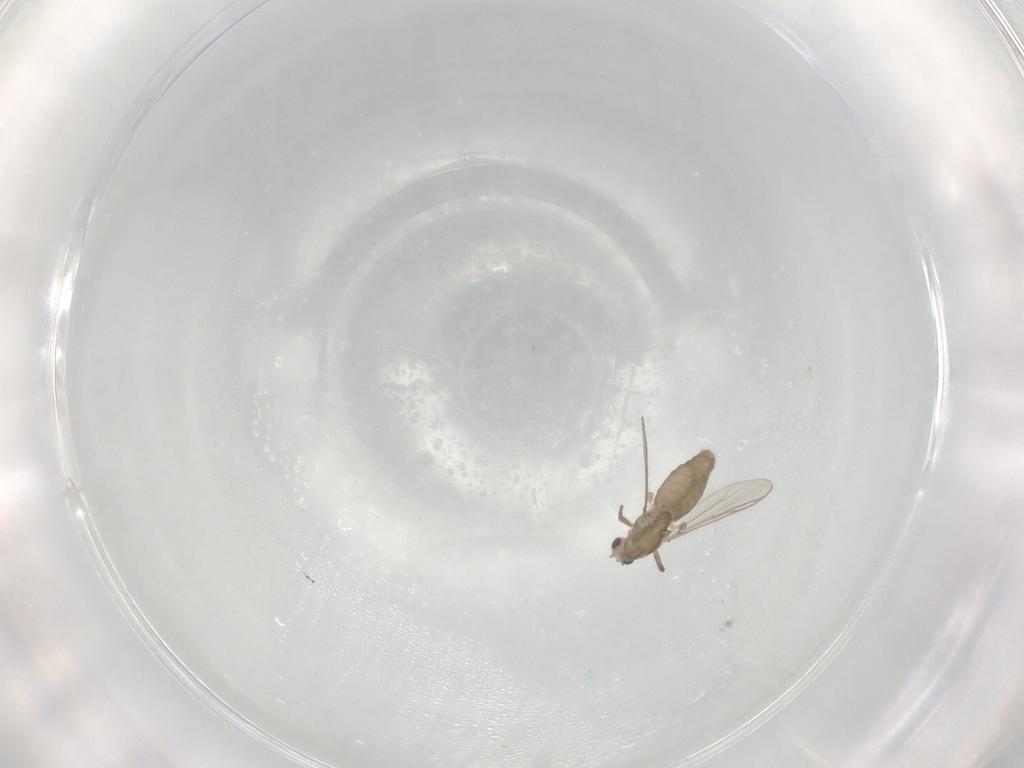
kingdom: Animalia
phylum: Arthropoda
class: Insecta
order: Diptera
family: Chironomidae
